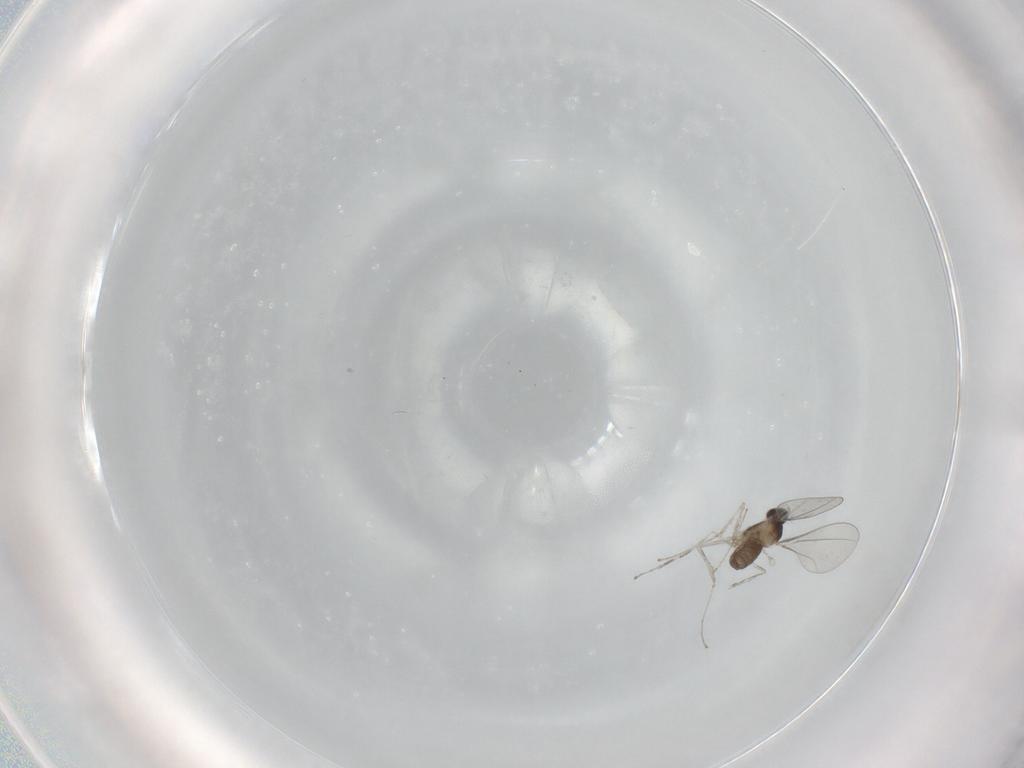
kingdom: Animalia
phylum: Arthropoda
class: Insecta
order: Diptera
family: Cecidomyiidae
